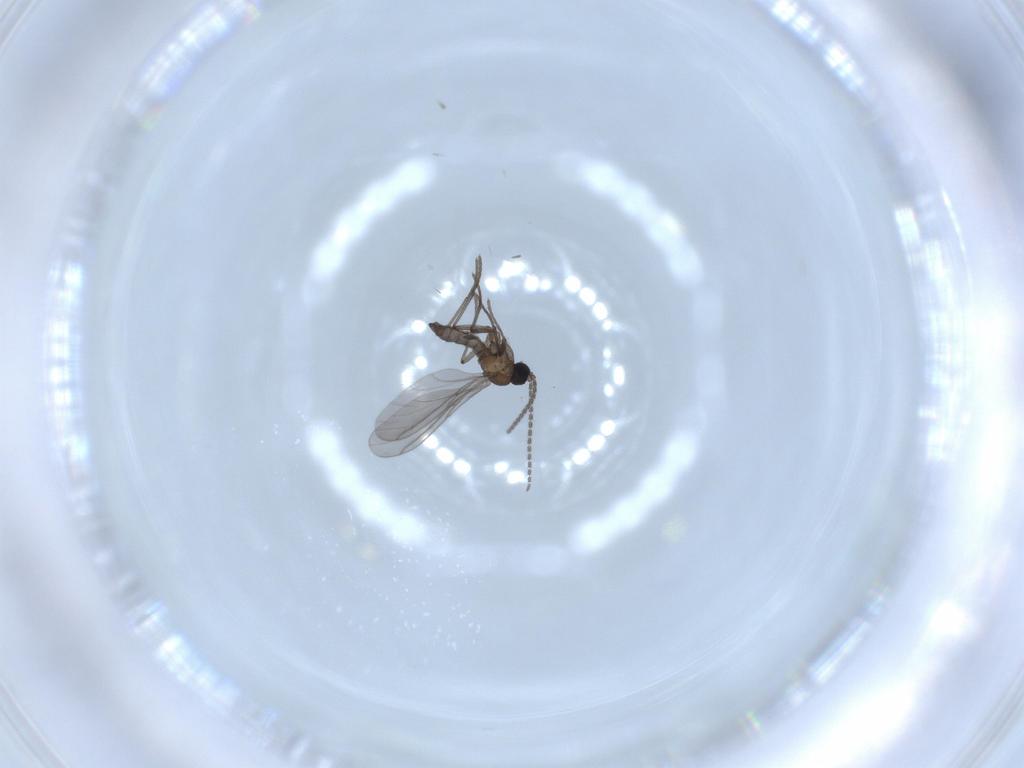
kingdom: Animalia
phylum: Arthropoda
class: Insecta
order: Diptera
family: Sciaridae
